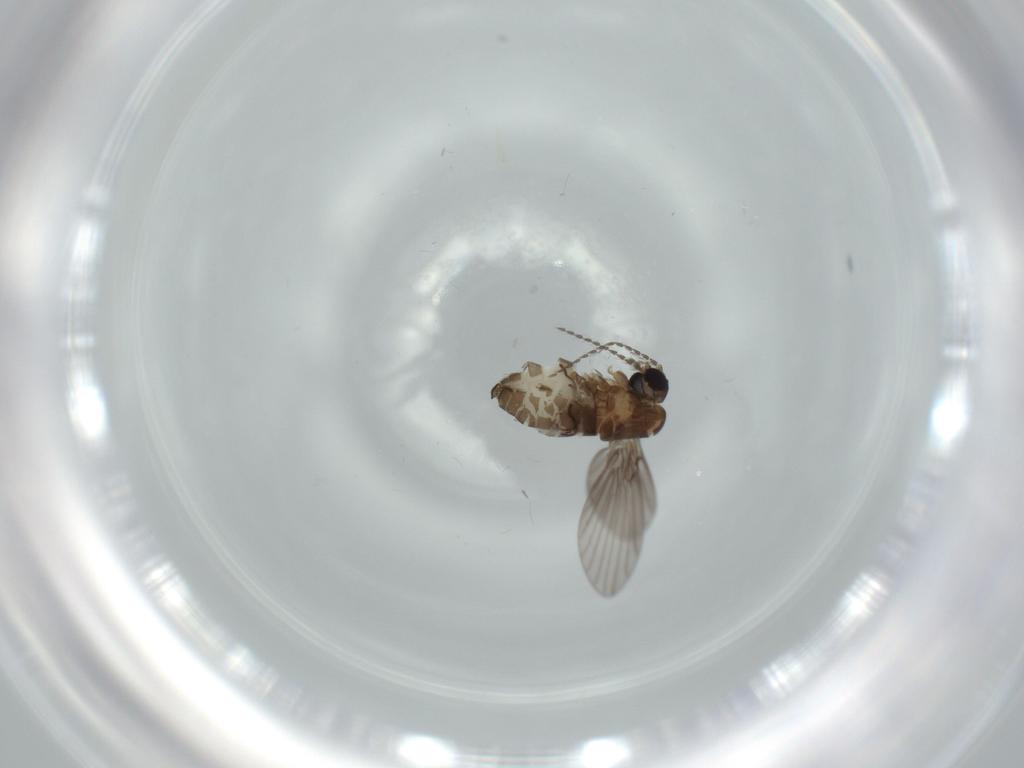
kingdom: Animalia
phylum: Arthropoda
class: Insecta
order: Diptera
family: Psychodidae
